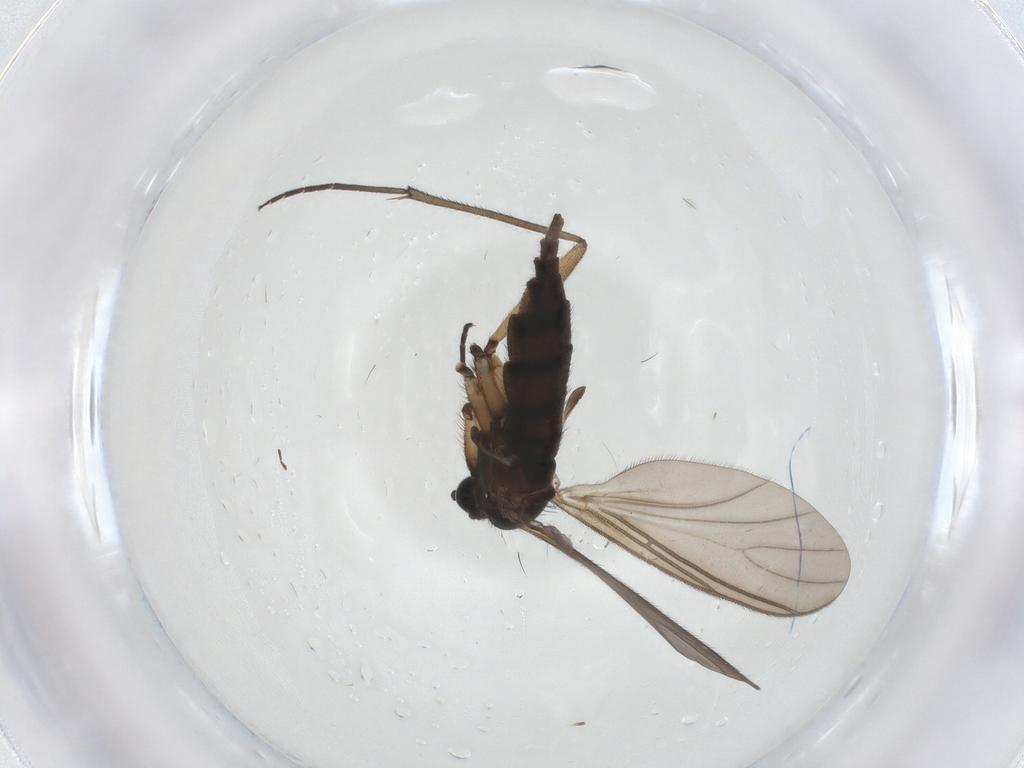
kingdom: Animalia
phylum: Arthropoda
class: Insecta
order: Diptera
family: Sciaridae
